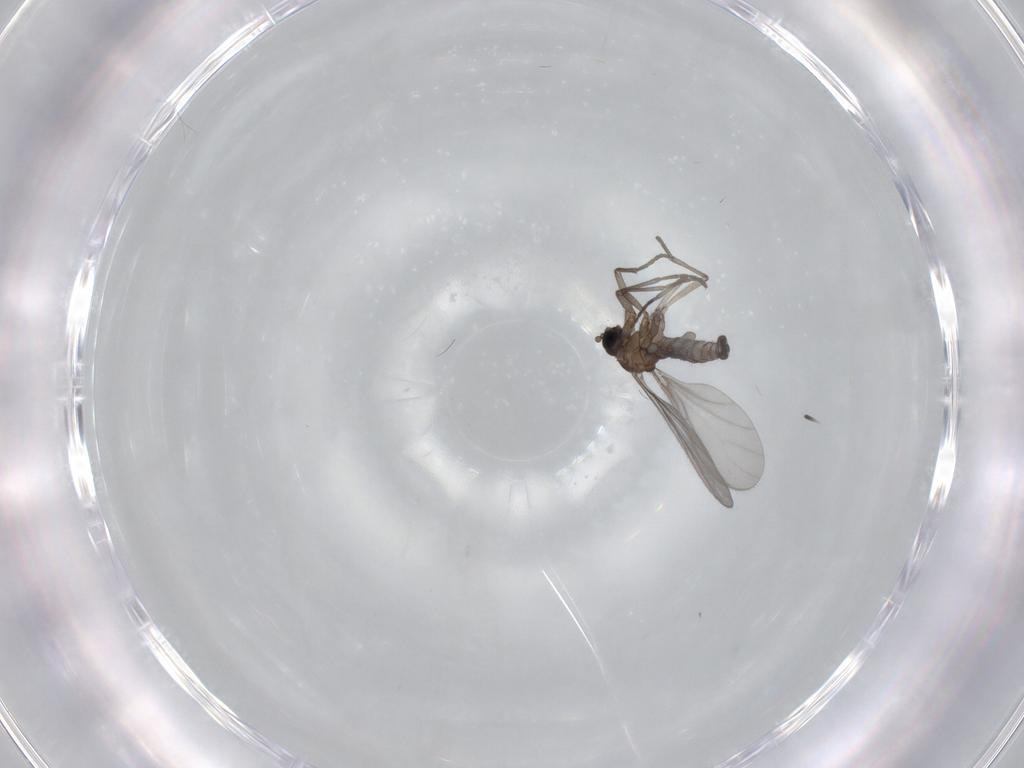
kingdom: Animalia
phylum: Arthropoda
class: Insecta
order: Diptera
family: Sciaridae
